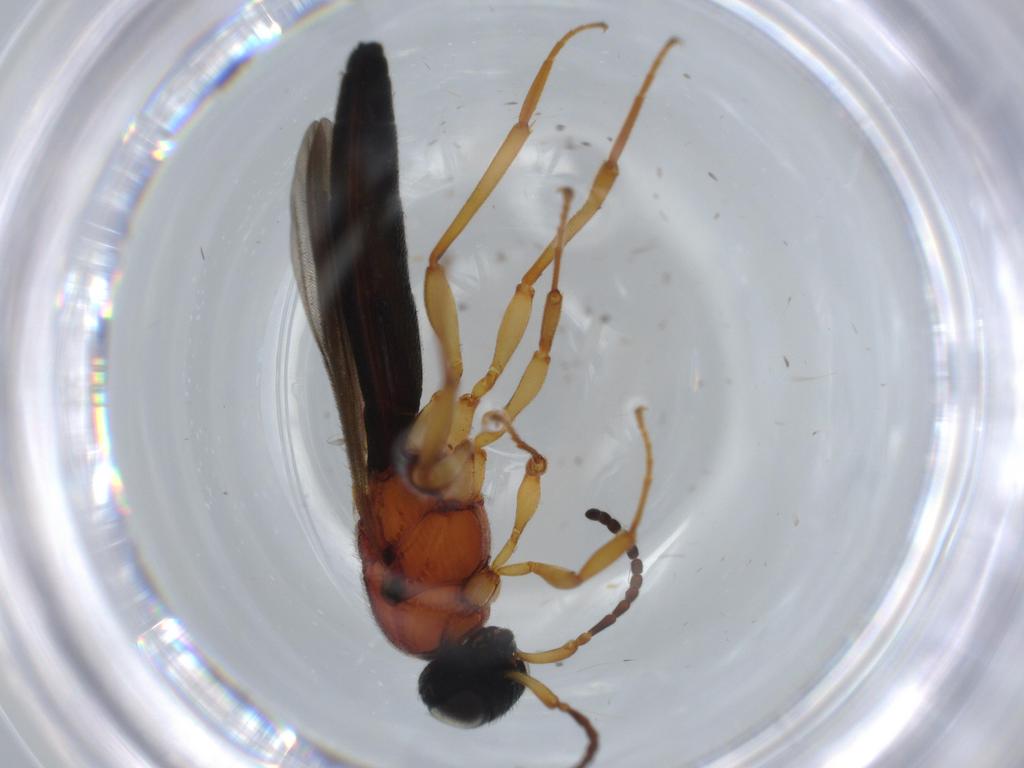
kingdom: Animalia
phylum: Arthropoda
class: Insecta
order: Hymenoptera
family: Scelionidae
